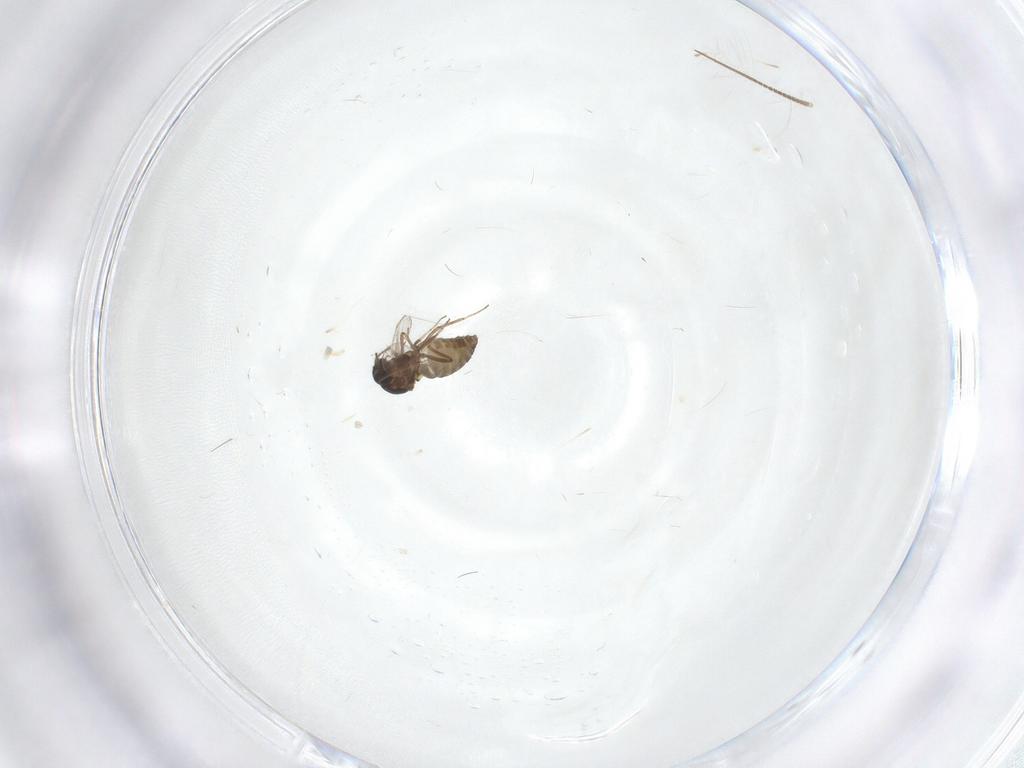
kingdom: Animalia
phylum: Arthropoda
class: Insecta
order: Diptera
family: Ceratopogonidae
